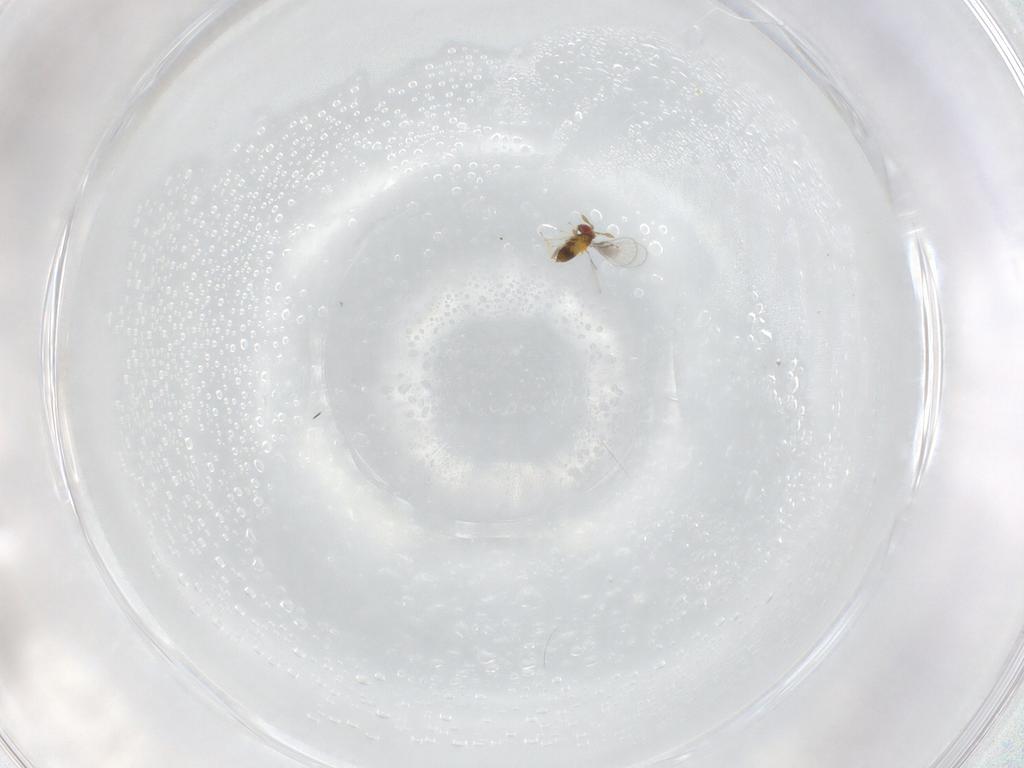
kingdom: Animalia
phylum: Arthropoda
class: Insecta
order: Hymenoptera
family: Trichogrammatidae
